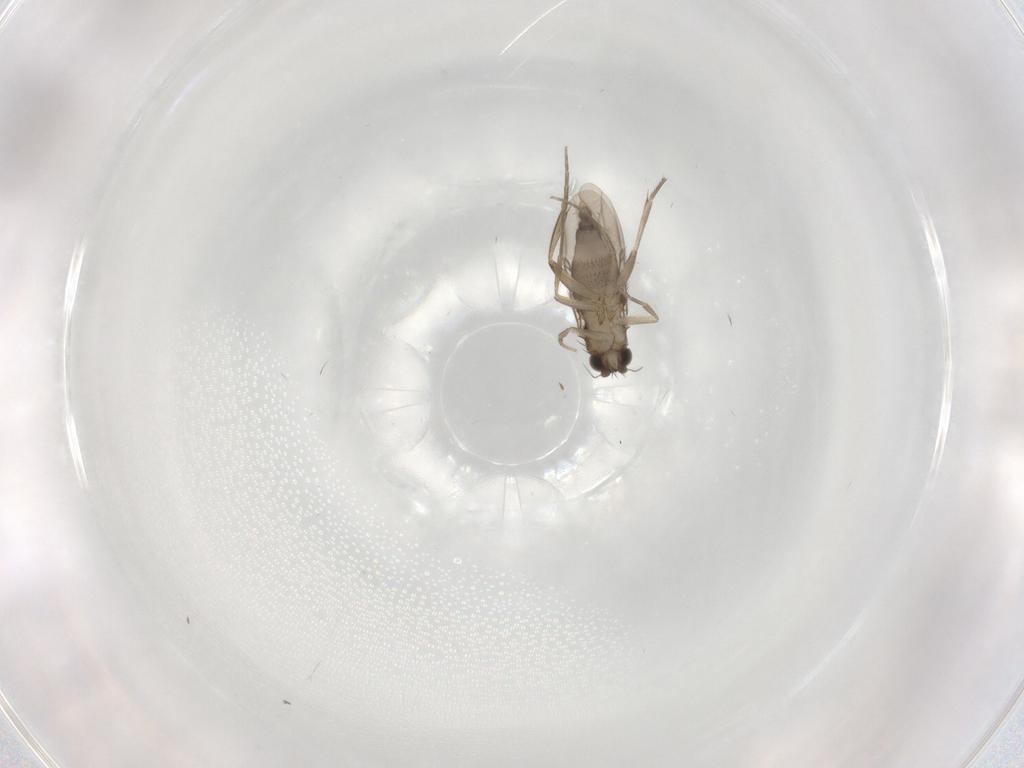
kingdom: Animalia
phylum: Arthropoda
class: Insecta
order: Diptera
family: Phoridae
